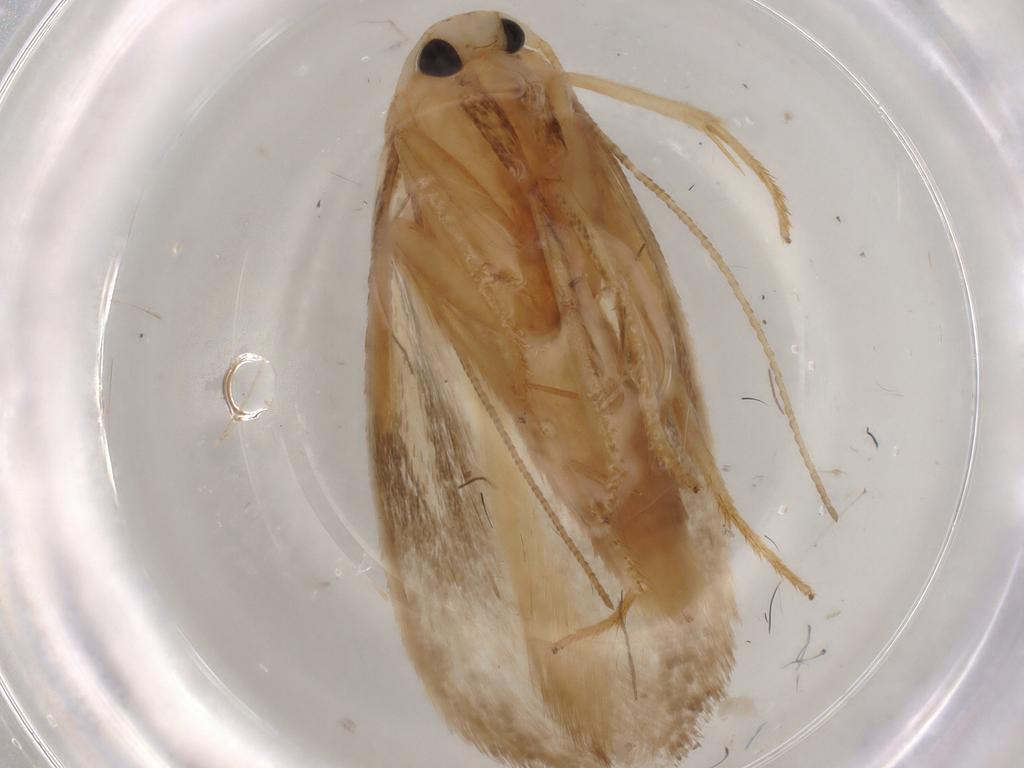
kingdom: Animalia
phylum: Arthropoda
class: Insecta
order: Lepidoptera
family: Geometridae
